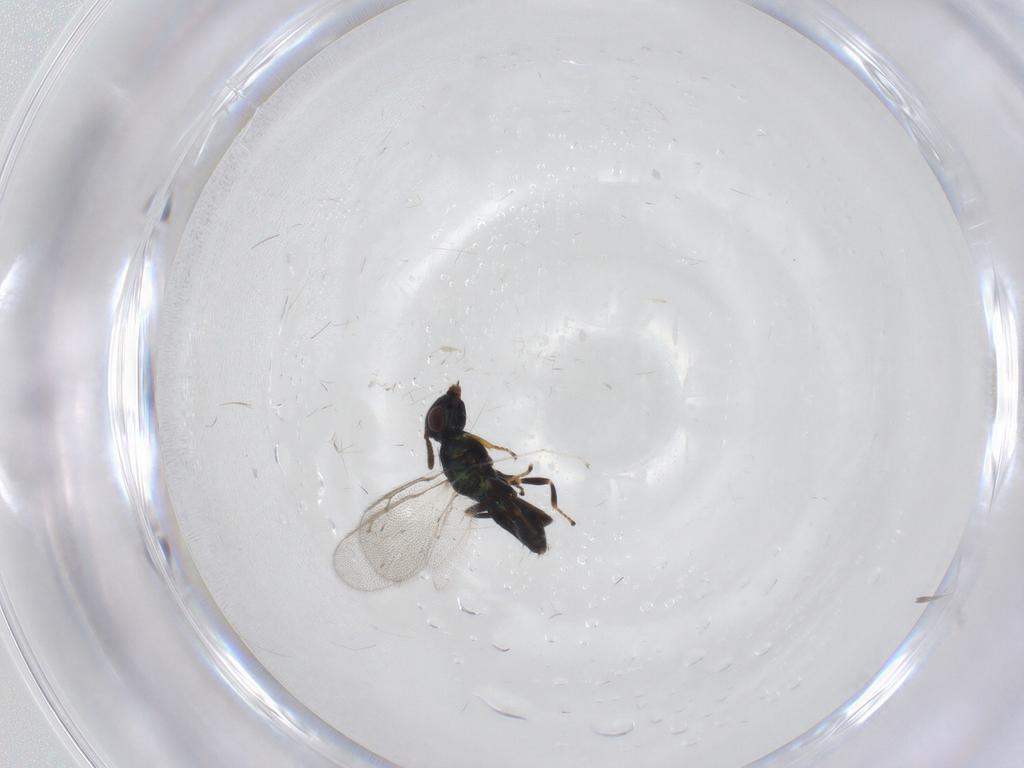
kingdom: Animalia
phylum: Arthropoda
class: Insecta
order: Hymenoptera
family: Pteromalidae
